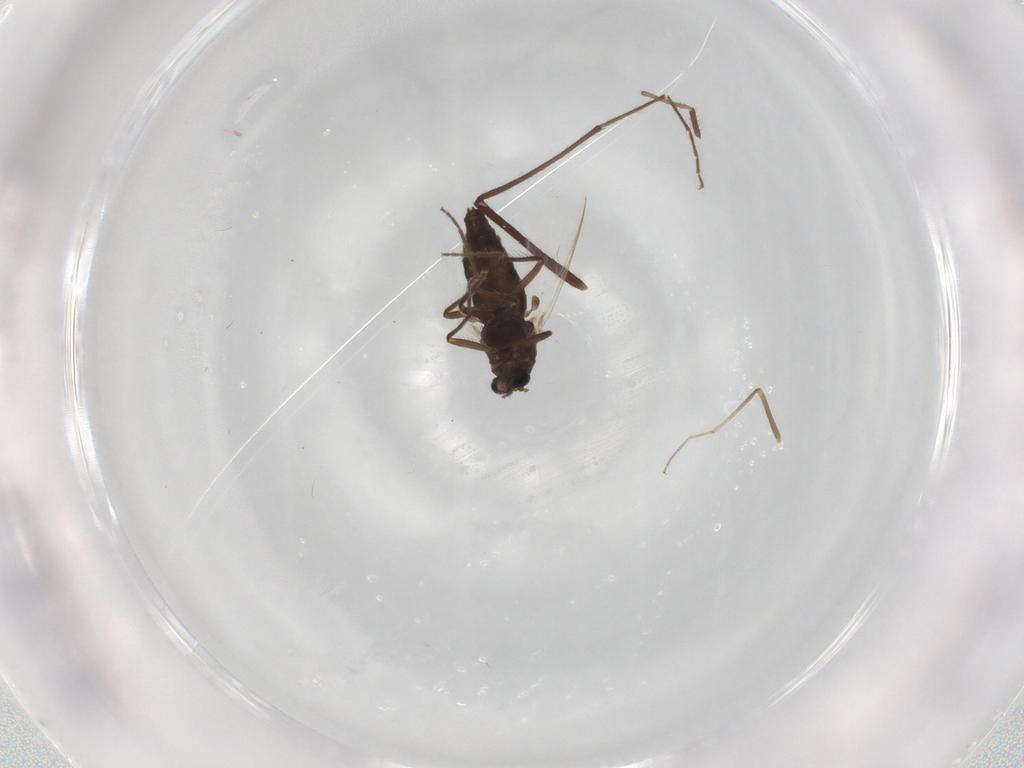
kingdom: Animalia
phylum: Arthropoda
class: Insecta
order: Diptera
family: Chironomidae
